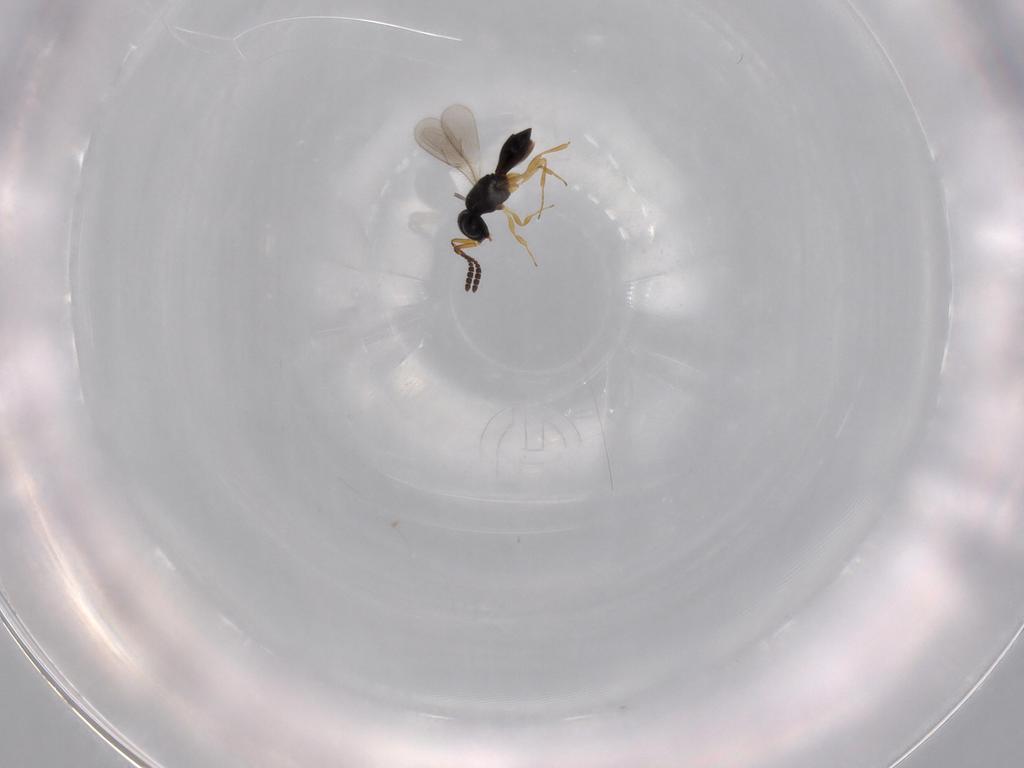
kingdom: Animalia
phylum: Arthropoda
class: Insecta
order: Hymenoptera
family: Scelionidae
